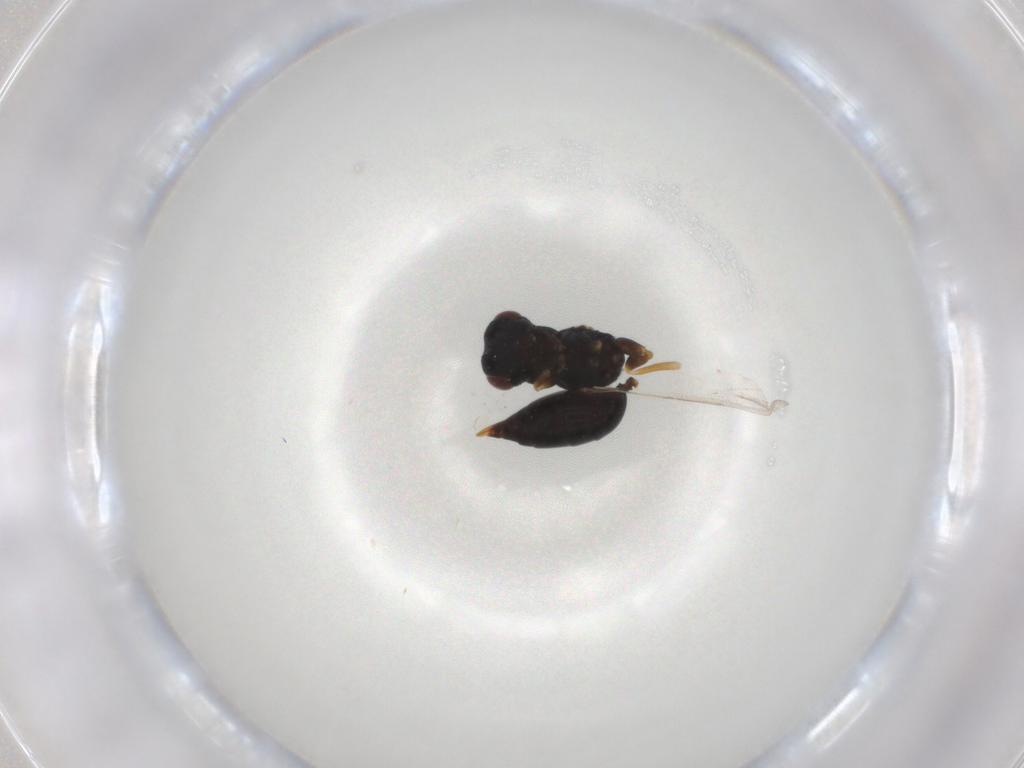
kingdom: Animalia
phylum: Arthropoda
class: Insecta
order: Hymenoptera
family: Eurytomidae
